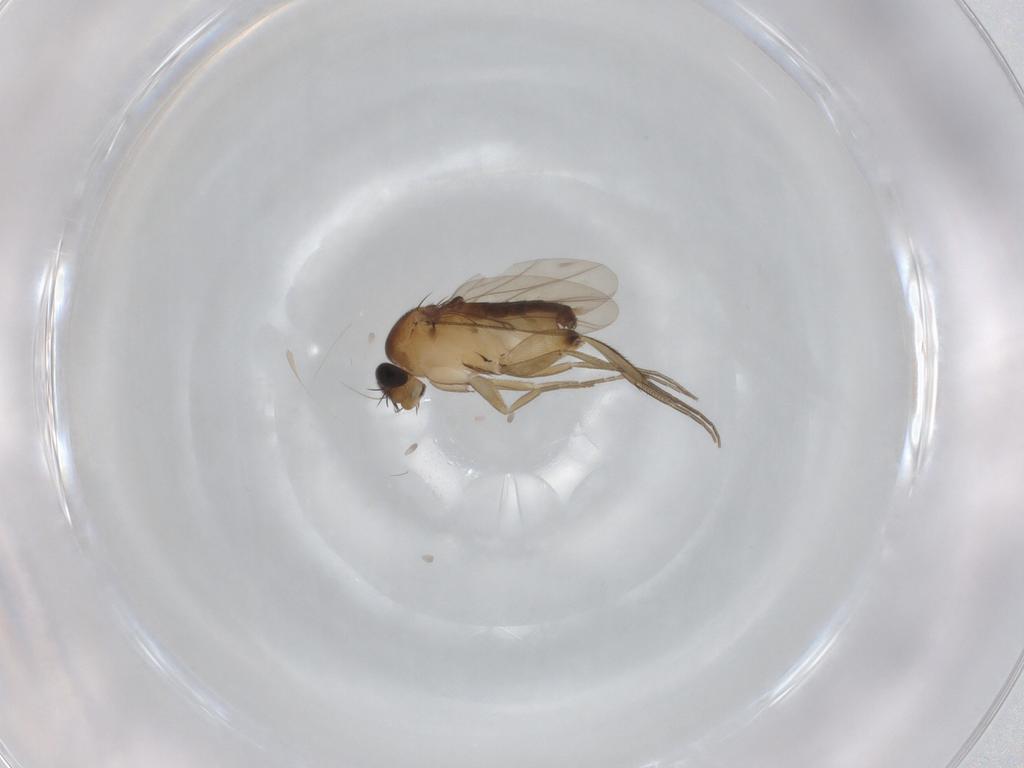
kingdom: Animalia
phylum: Arthropoda
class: Insecta
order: Diptera
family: Phoridae
